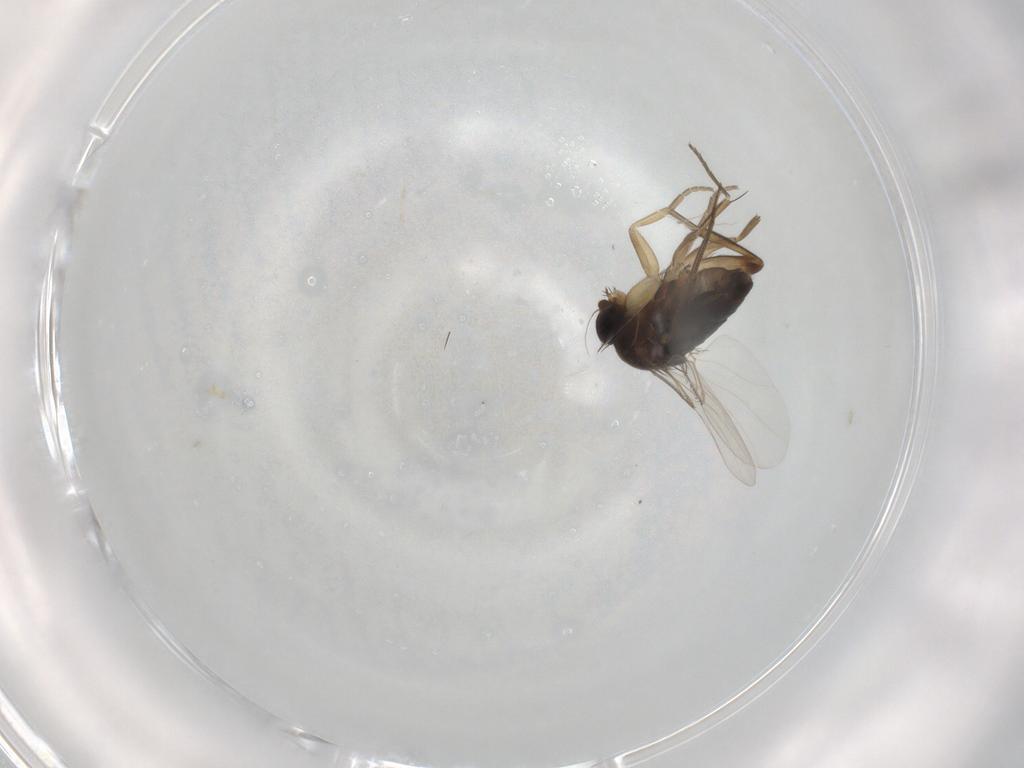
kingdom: Animalia
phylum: Arthropoda
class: Insecta
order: Diptera
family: Phoridae
